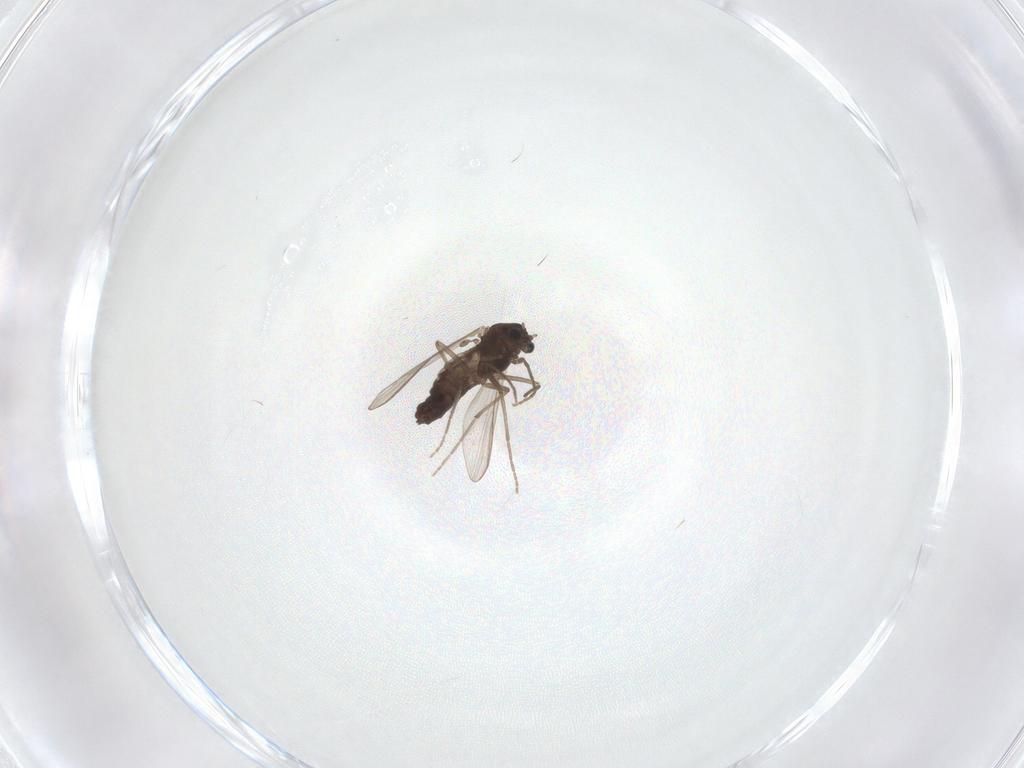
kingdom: Animalia
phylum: Arthropoda
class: Insecta
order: Diptera
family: Chironomidae
